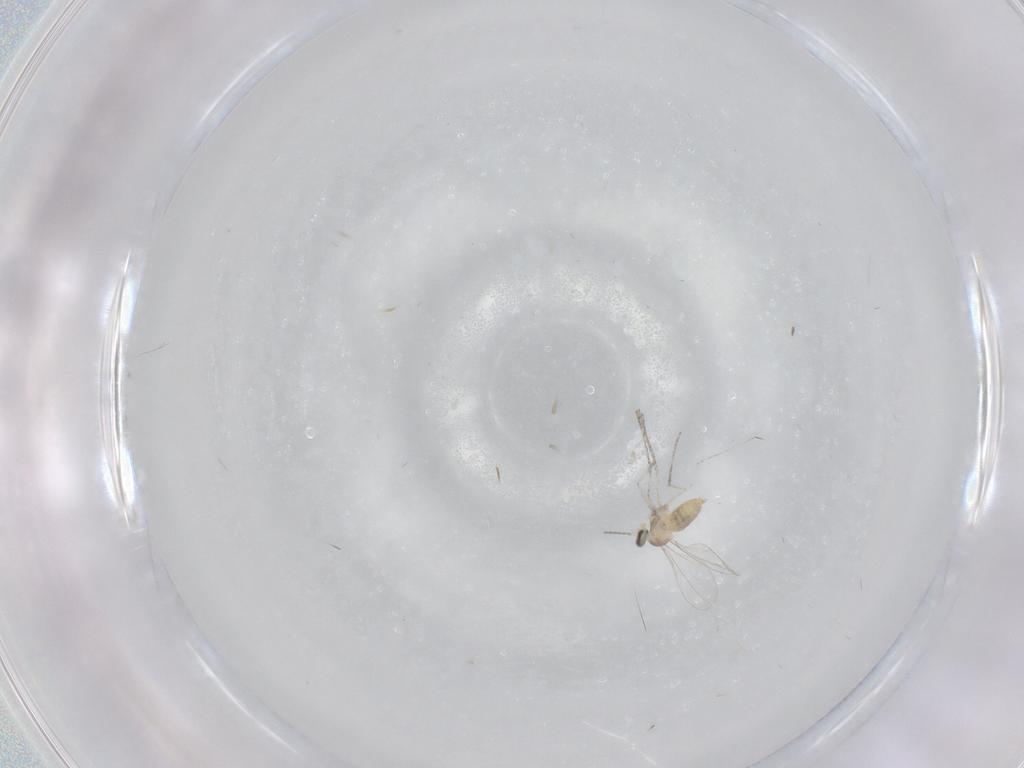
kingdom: Animalia
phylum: Arthropoda
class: Insecta
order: Diptera
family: Cecidomyiidae
